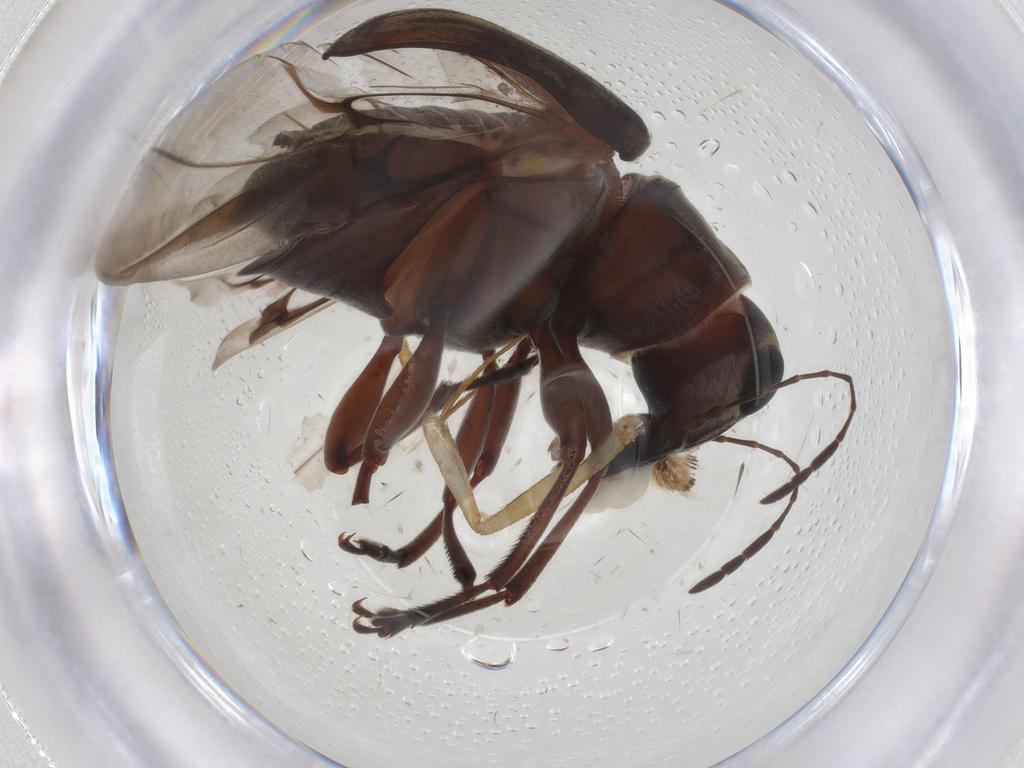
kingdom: Animalia
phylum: Arthropoda
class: Insecta
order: Coleoptera
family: Anthribidae
